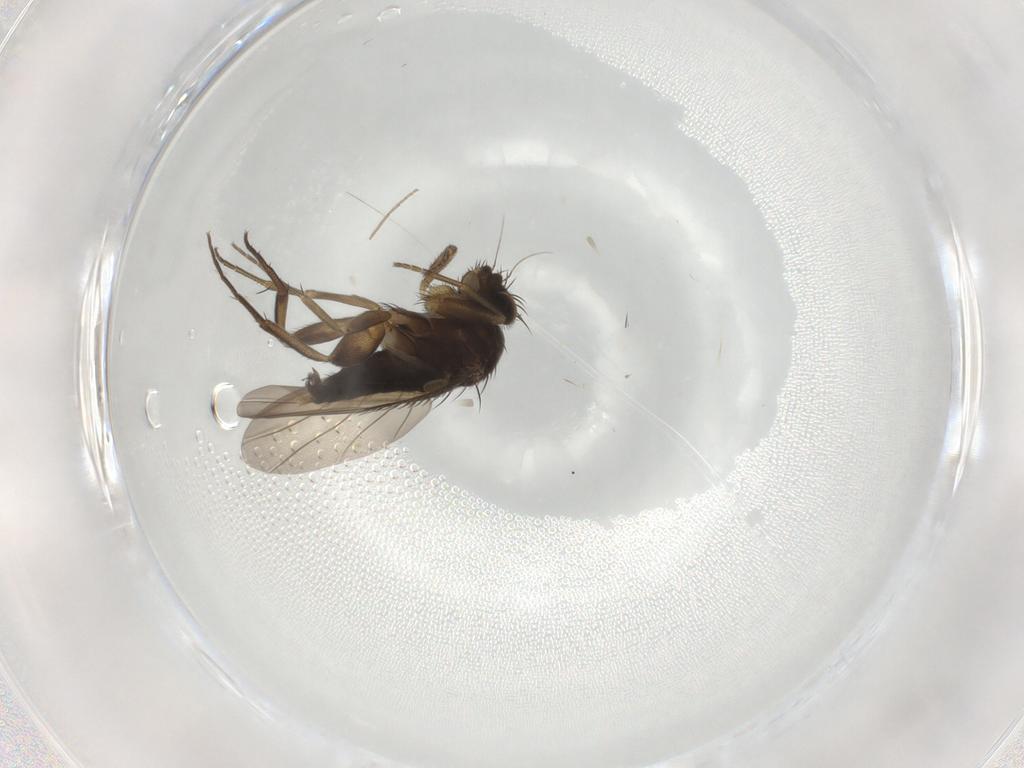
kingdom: Animalia
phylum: Arthropoda
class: Insecta
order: Diptera
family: Phoridae
